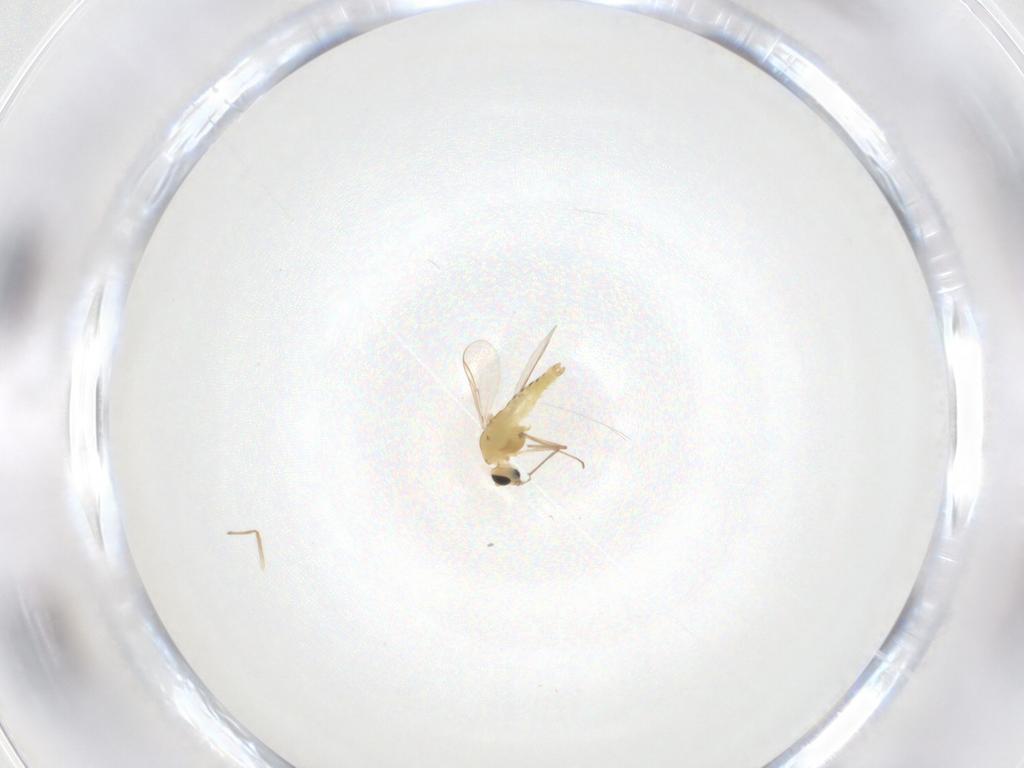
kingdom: Animalia
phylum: Arthropoda
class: Insecta
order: Diptera
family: Chironomidae
